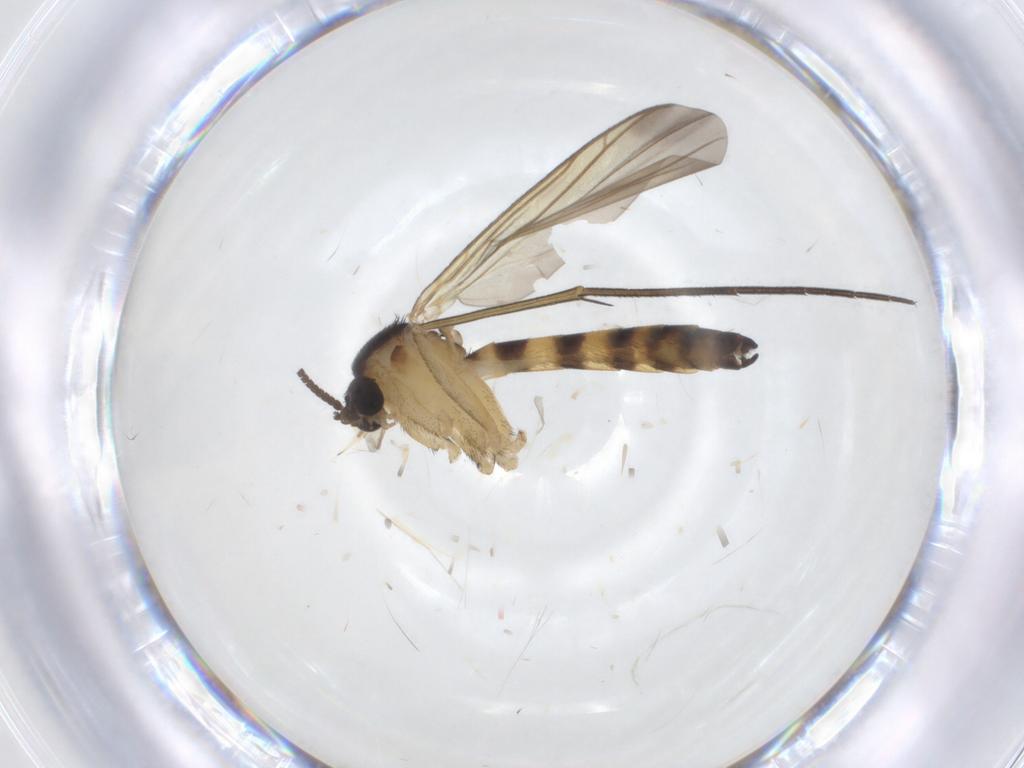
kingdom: Animalia
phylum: Arthropoda
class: Insecta
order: Diptera
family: Keroplatidae
